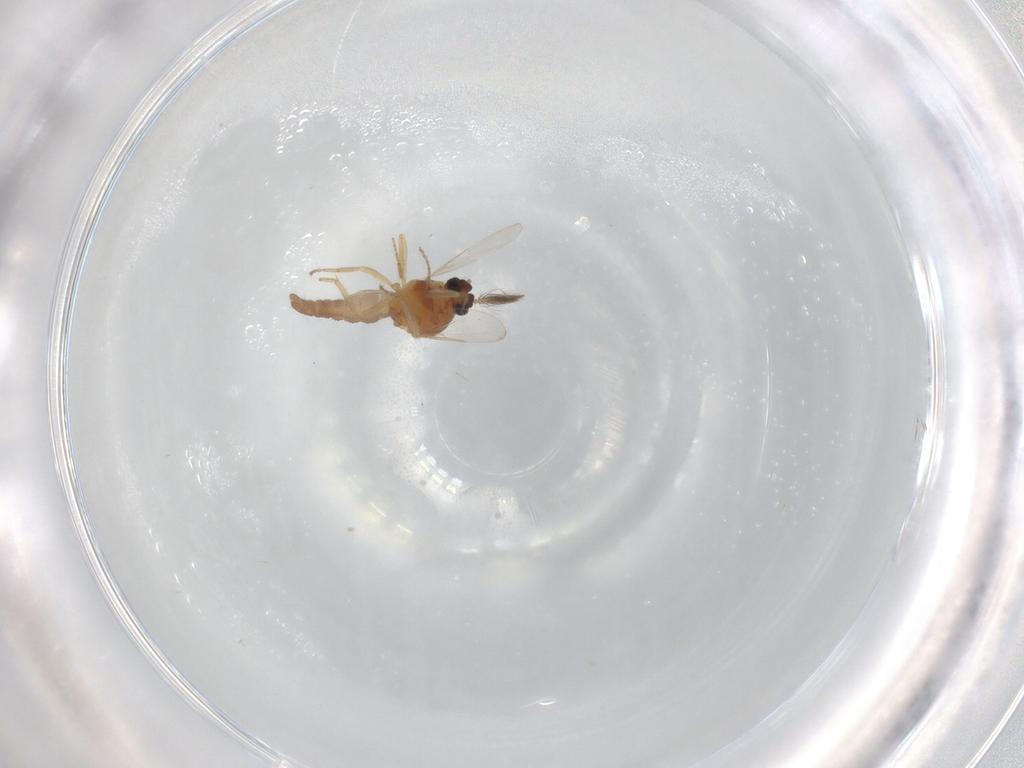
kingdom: Animalia
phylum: Arthropoda
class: Insecta
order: Diptera
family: Ceratopogonidae
